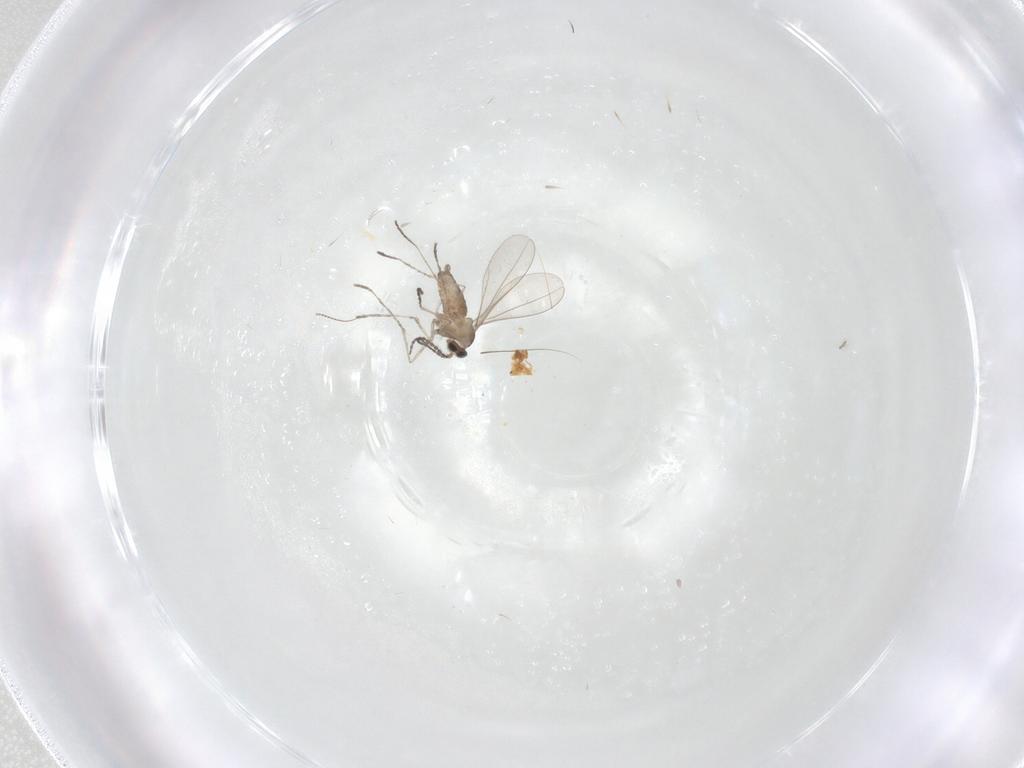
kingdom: Animalia
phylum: Arthropoda
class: Insecta
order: Diptera
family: Cecidomyiidae
